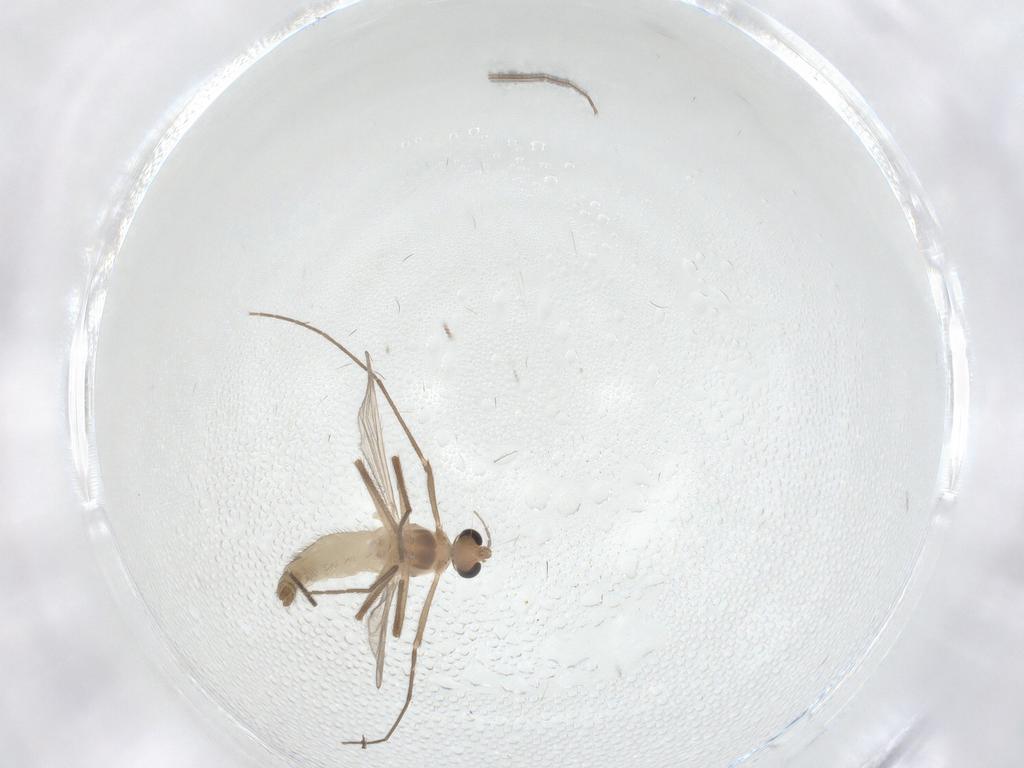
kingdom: Animalia
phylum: Arthropoda
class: Insecta
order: Diptera
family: Chironomidae
